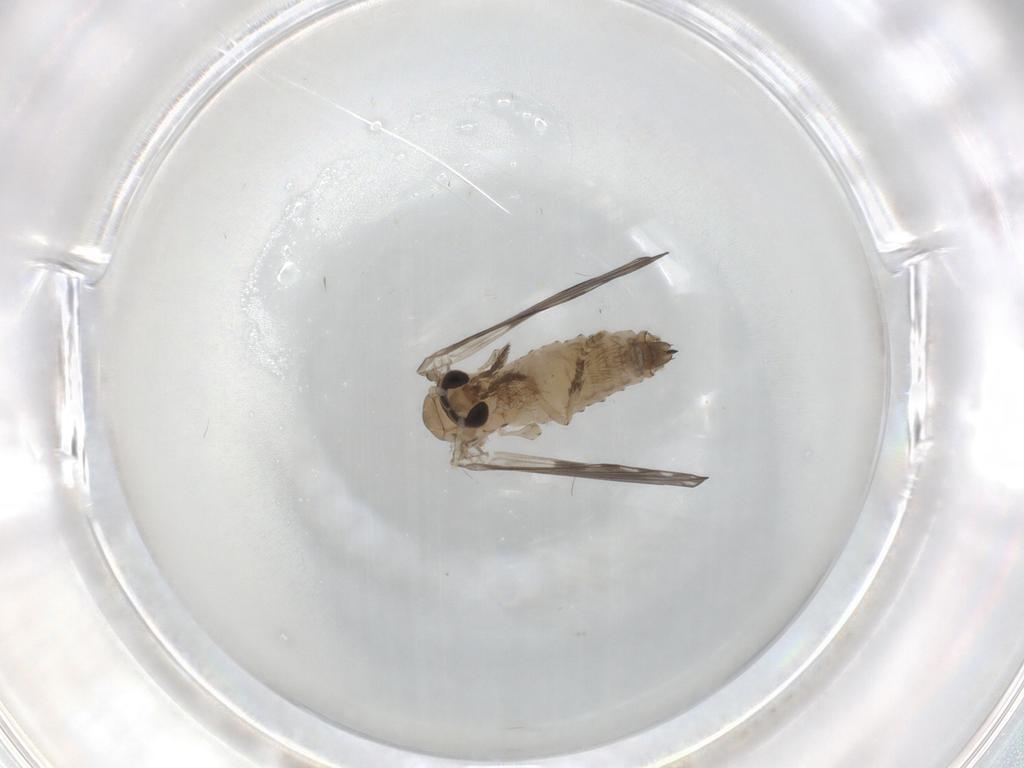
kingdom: Animalia
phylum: Arthropoda
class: Insecta
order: Diptera
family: Psychodidae
